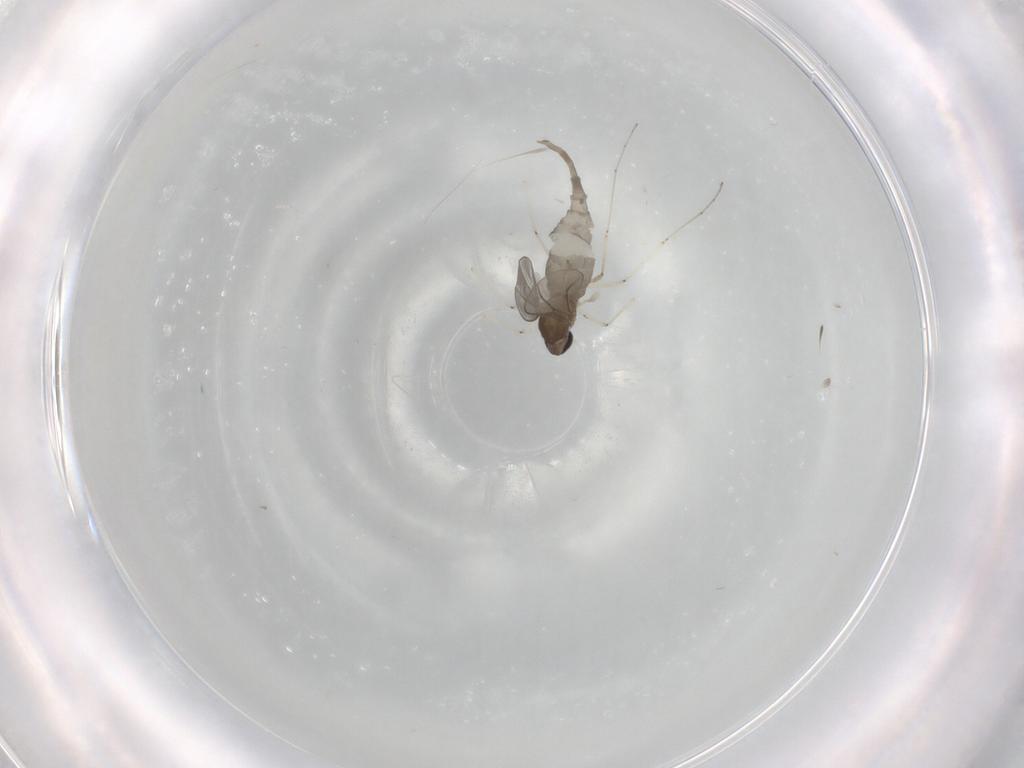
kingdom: Animalia
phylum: Arthropoda
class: Insecta
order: Diptera
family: Cecidomyiidae
